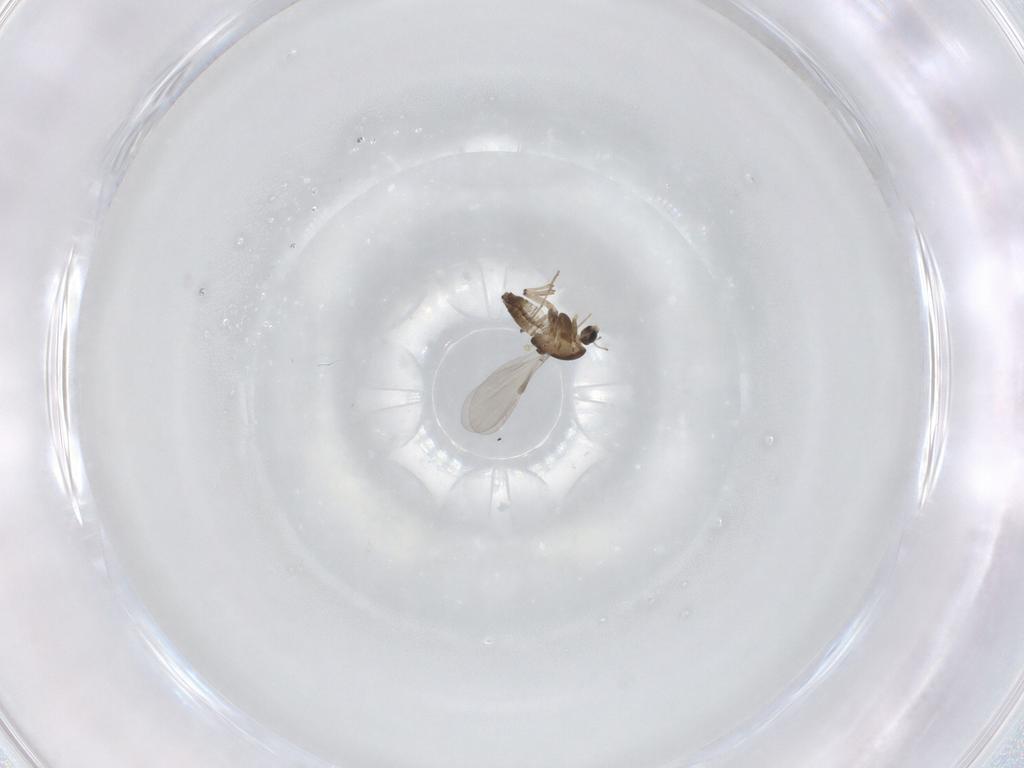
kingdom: Animalia
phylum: Arthropoda
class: Insecta
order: Diptera
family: Chironomidae
